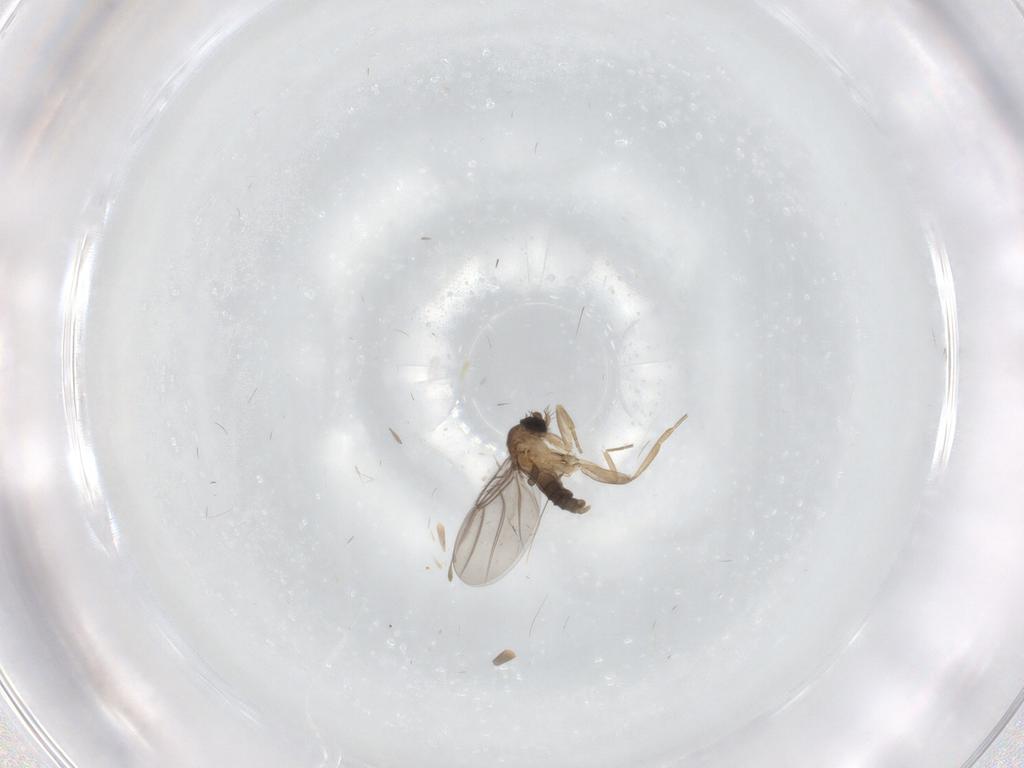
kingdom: Animalia
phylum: Arthropoda
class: Insecta
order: Diptera
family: Phoridae
